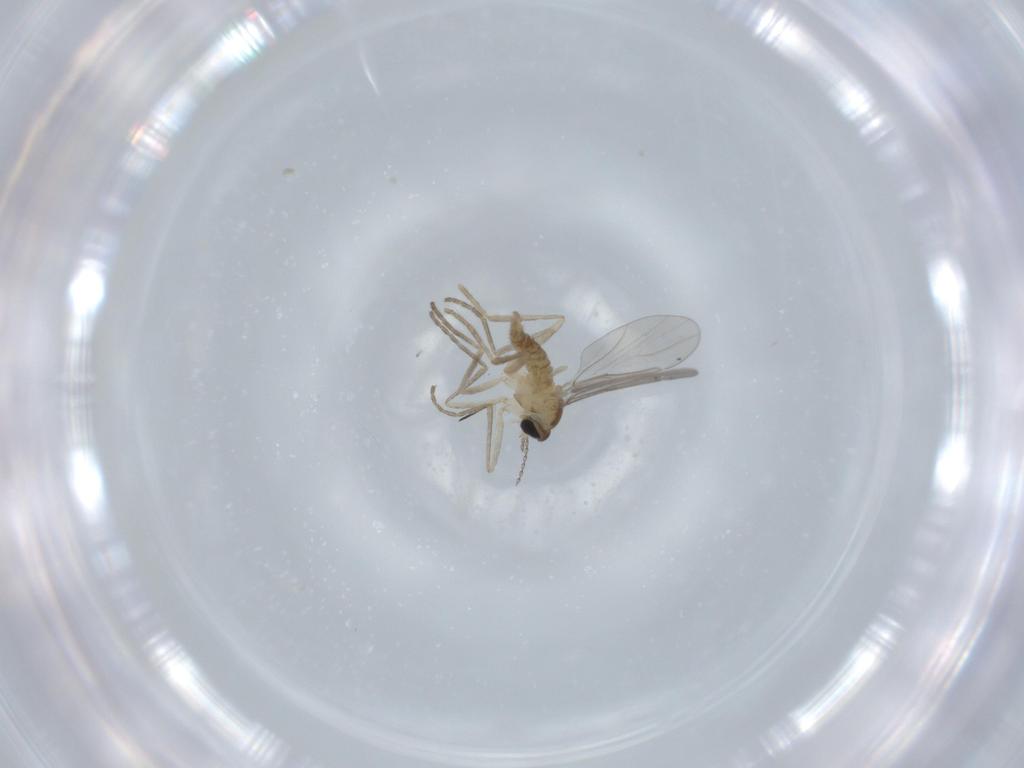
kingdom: Animalia
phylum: Arthropoda
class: Insecta
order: Diptera
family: Cecidomyiidae
